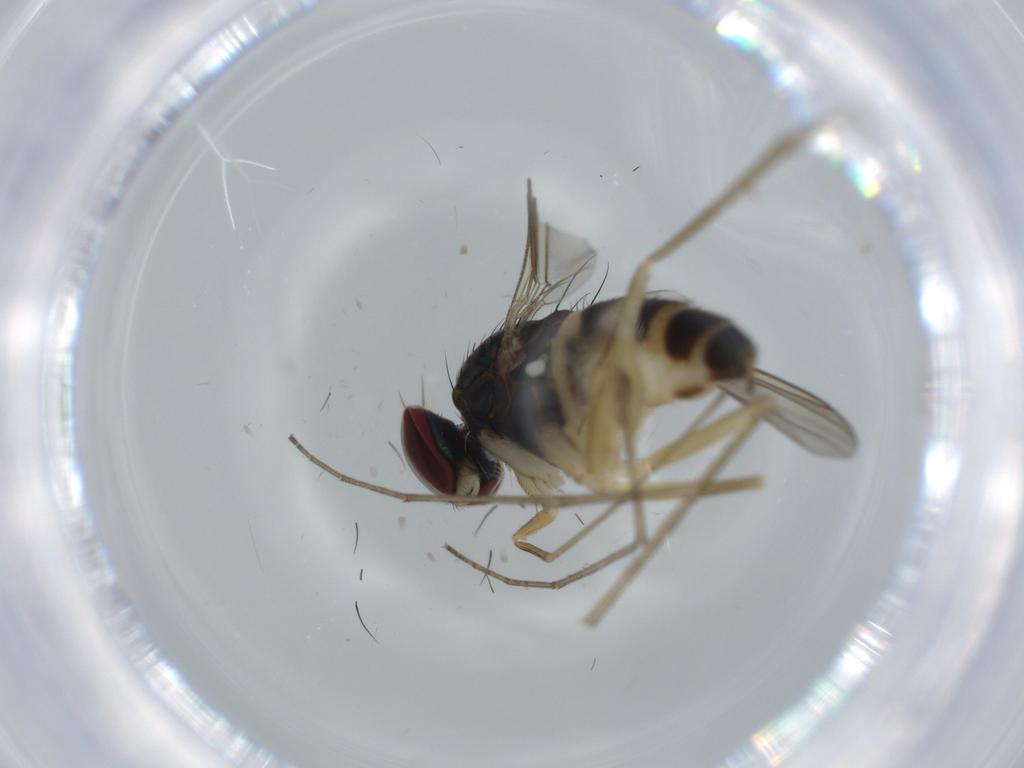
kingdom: Animalia
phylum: Arthropoda
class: Insecta
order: Diptera
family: Dolichopodidae
